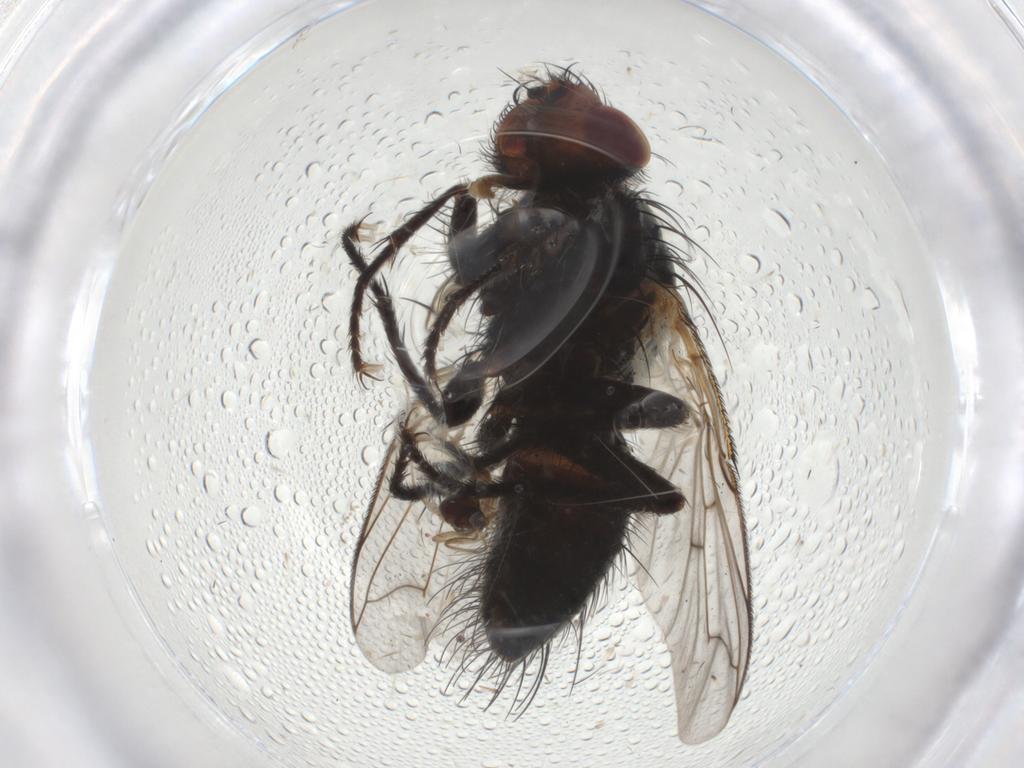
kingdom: Animalia
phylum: Arthropoda
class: Insecta
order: Diptera
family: Tachinidae
